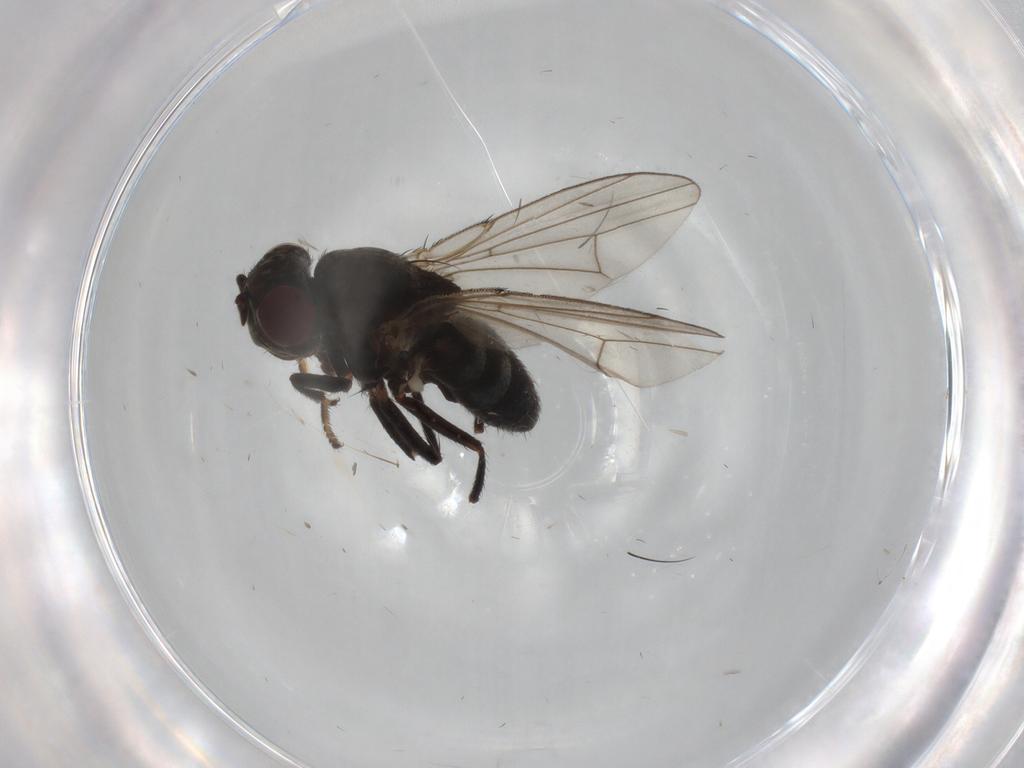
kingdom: Animalia
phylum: Arthropoda
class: Insecta
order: Diptera
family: Ephydridae
